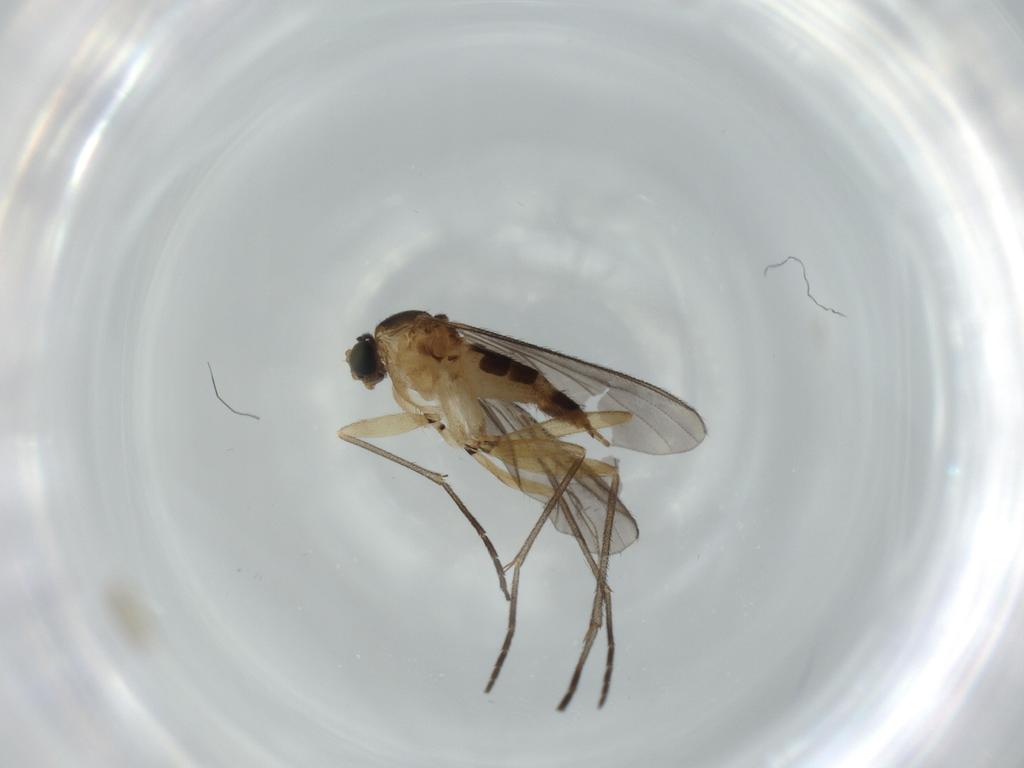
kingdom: Animalia
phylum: Arthropoda
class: Insecta
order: Diptera
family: Sciaridae
